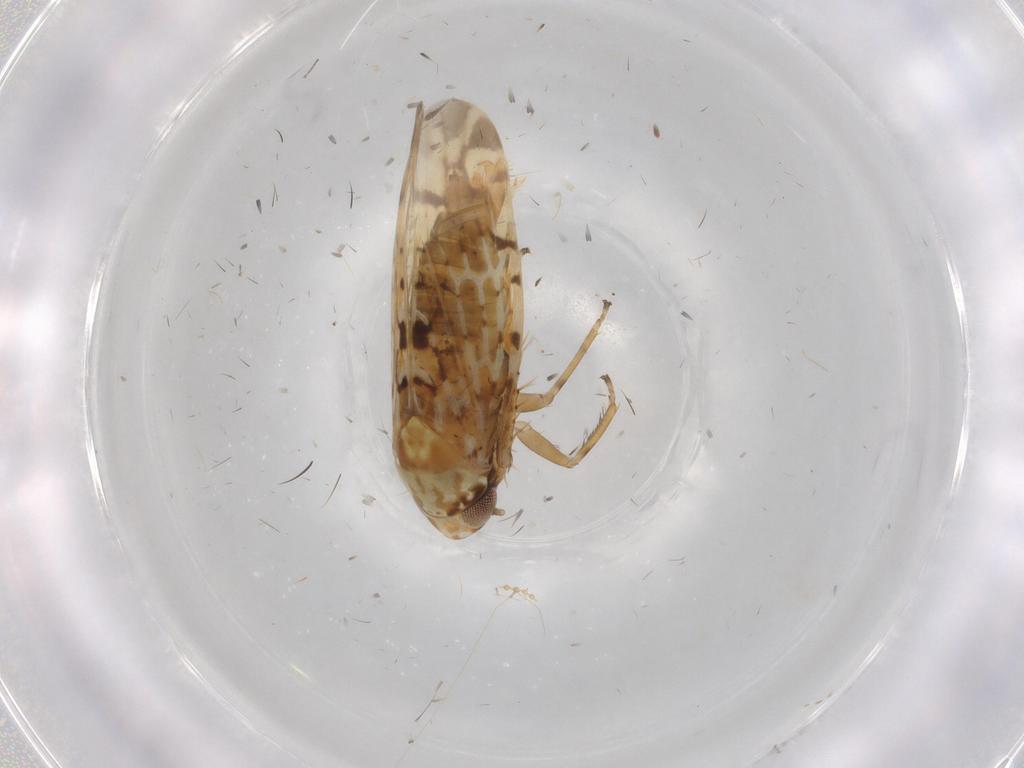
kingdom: Animalia
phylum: Arthropoda
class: Insecta
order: Hemiptera
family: Cicadellidae
